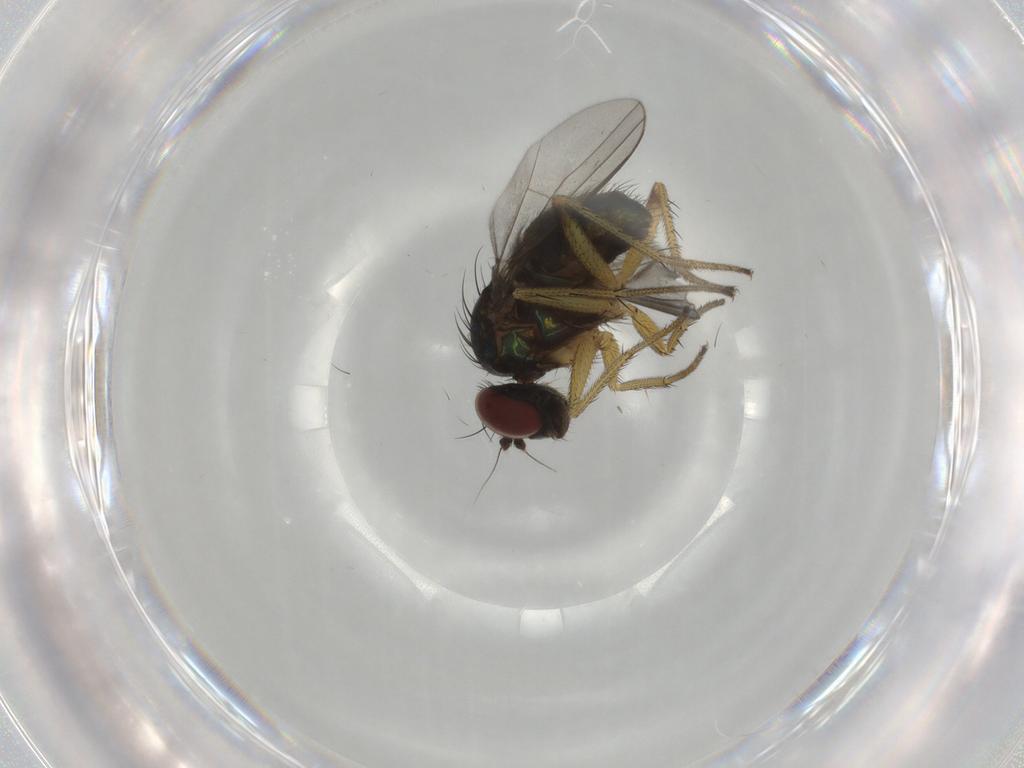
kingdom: Animalia
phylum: Arthropoda
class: Insecta
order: Diptera
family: Dolichopodidae
